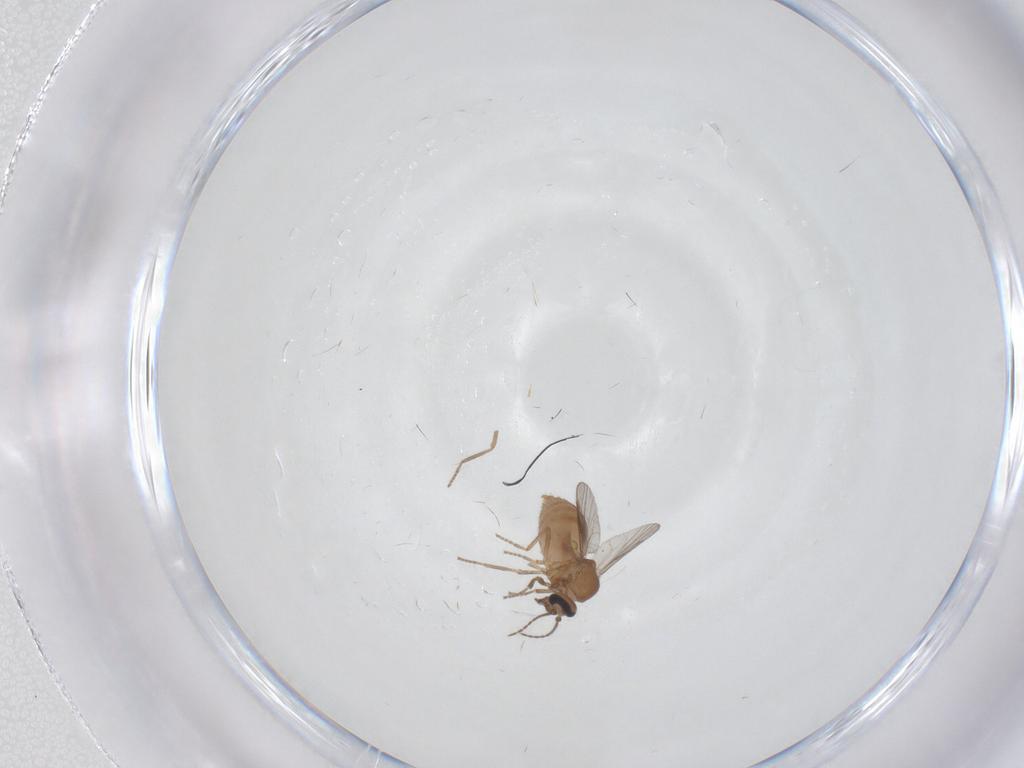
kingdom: Animalia
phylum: Arthropoda
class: Insecta
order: Diptera
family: Ceratopogonidae
